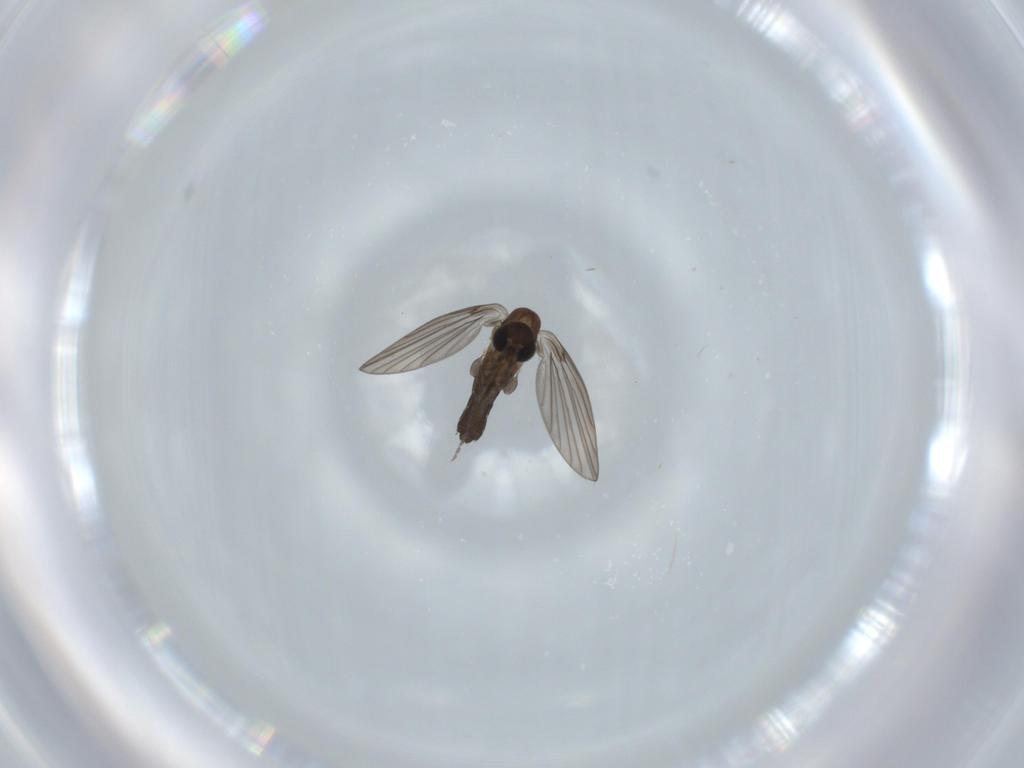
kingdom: Animalia
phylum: Arthropoda
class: Insecta
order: Diptera
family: Psychodidae
